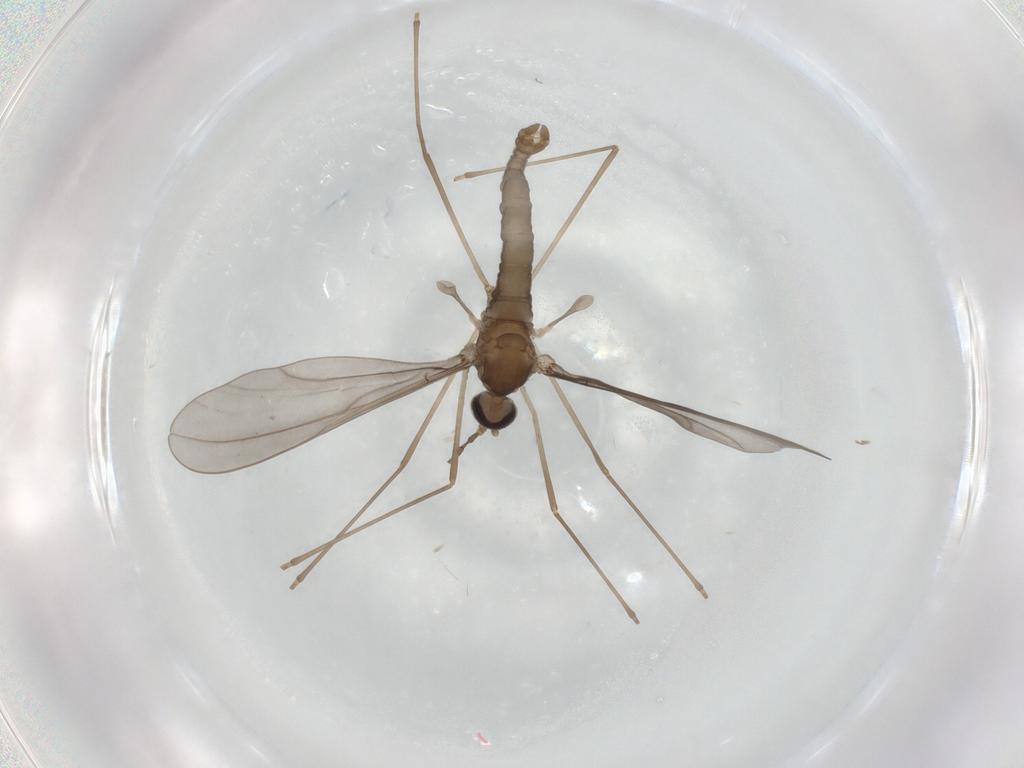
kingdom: Animalia
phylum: Arthropoda
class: Insecta
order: Diptera
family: Cecidomyiidae
